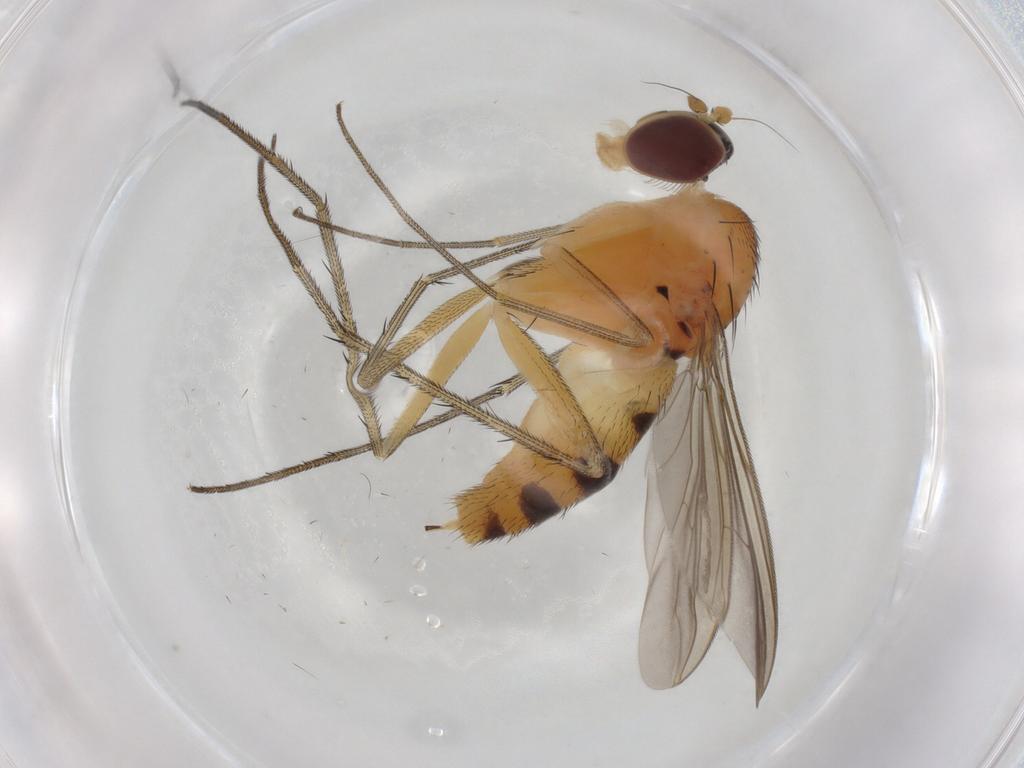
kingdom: Animalia
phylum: Arthropoda
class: Insecta
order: Diptera
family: Dolichopodidae
